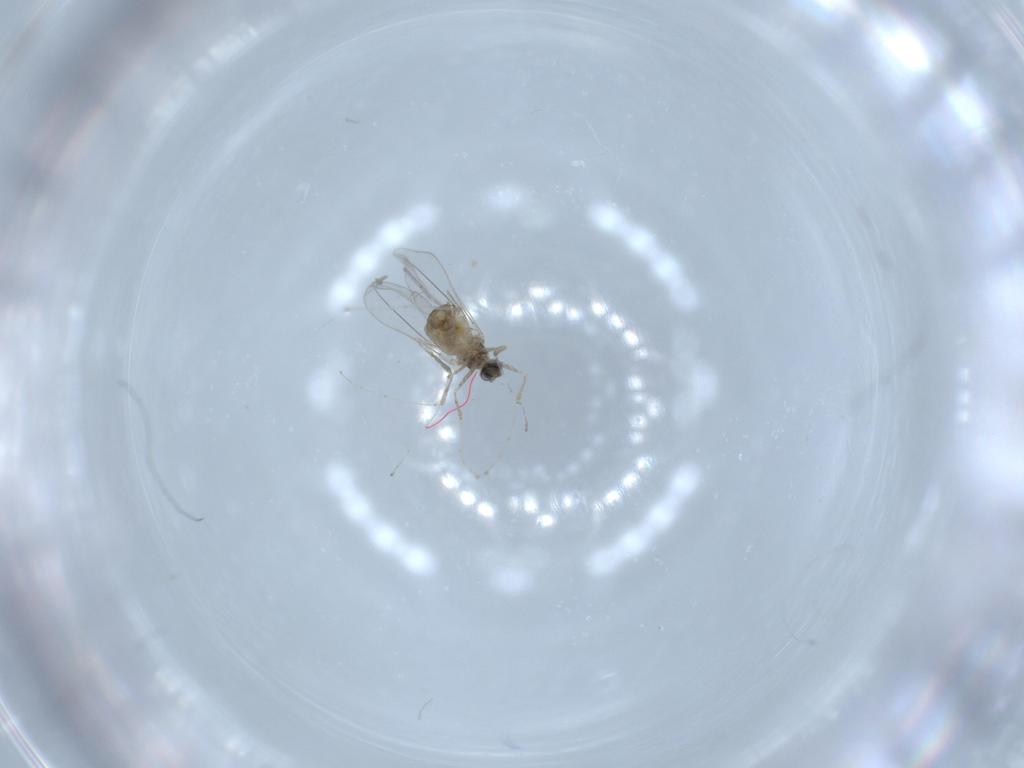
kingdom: Animalia
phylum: Arthropoda
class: Insecta
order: Diptera
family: Cecidomyiidae
